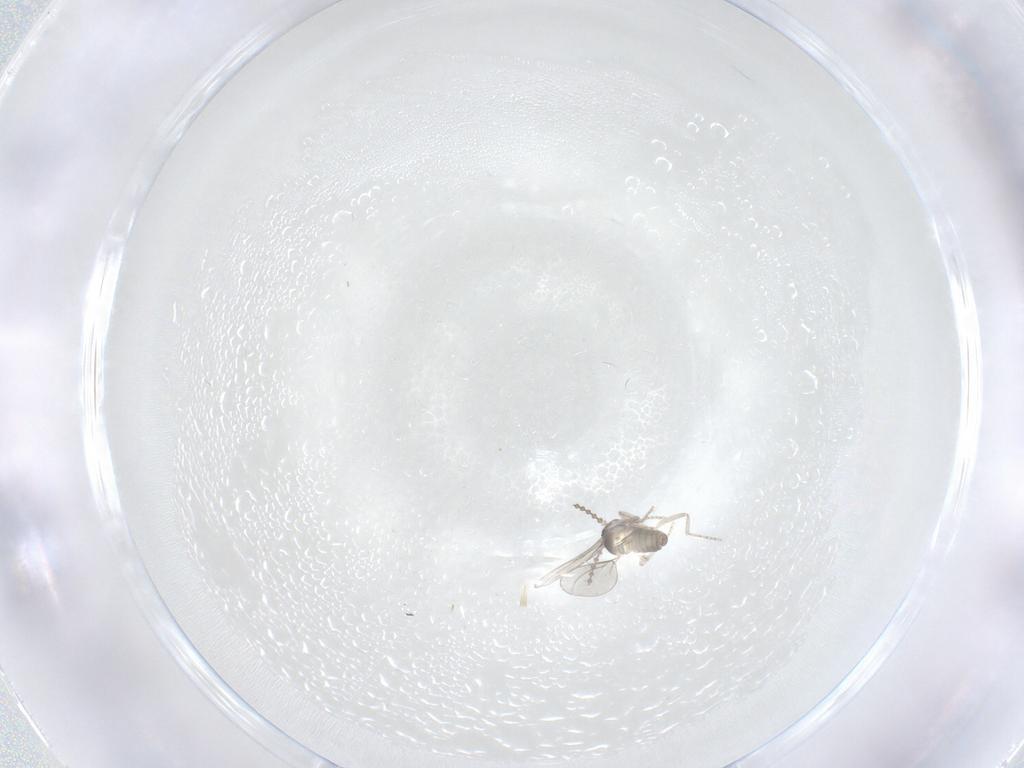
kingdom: Animalia
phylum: Arthropoda
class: Insecta
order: Diptera
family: Cecidomyiidae
